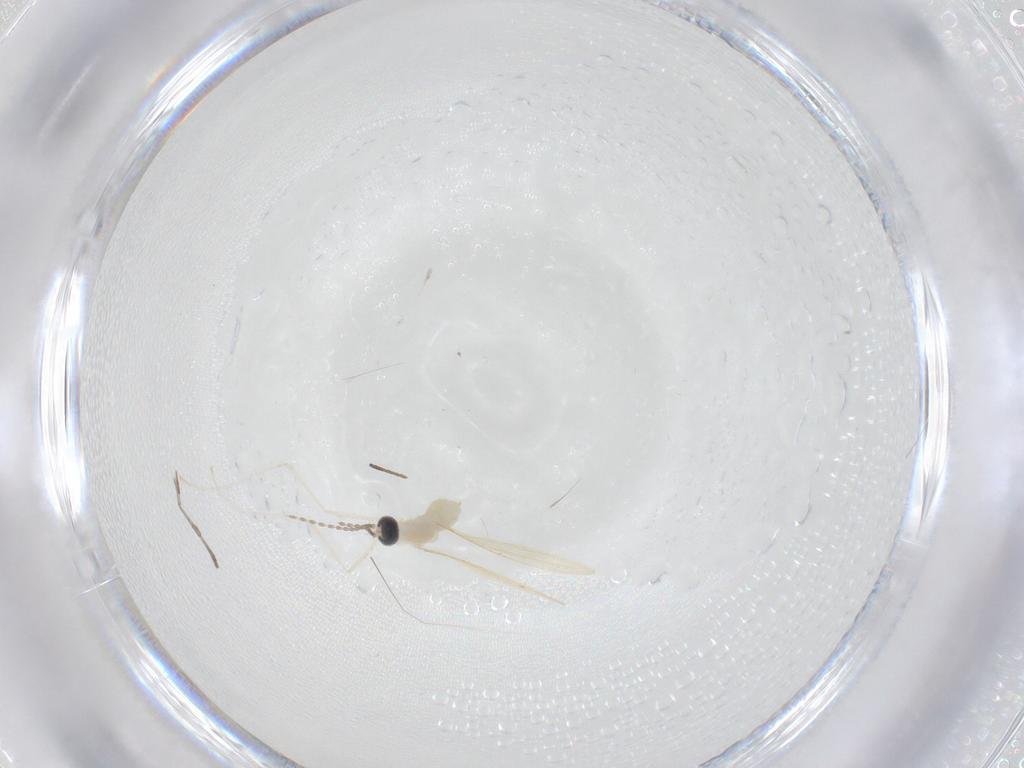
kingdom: Animalia
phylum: Arthropoda
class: Insecta
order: Diptera
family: Cecidomyiidae
